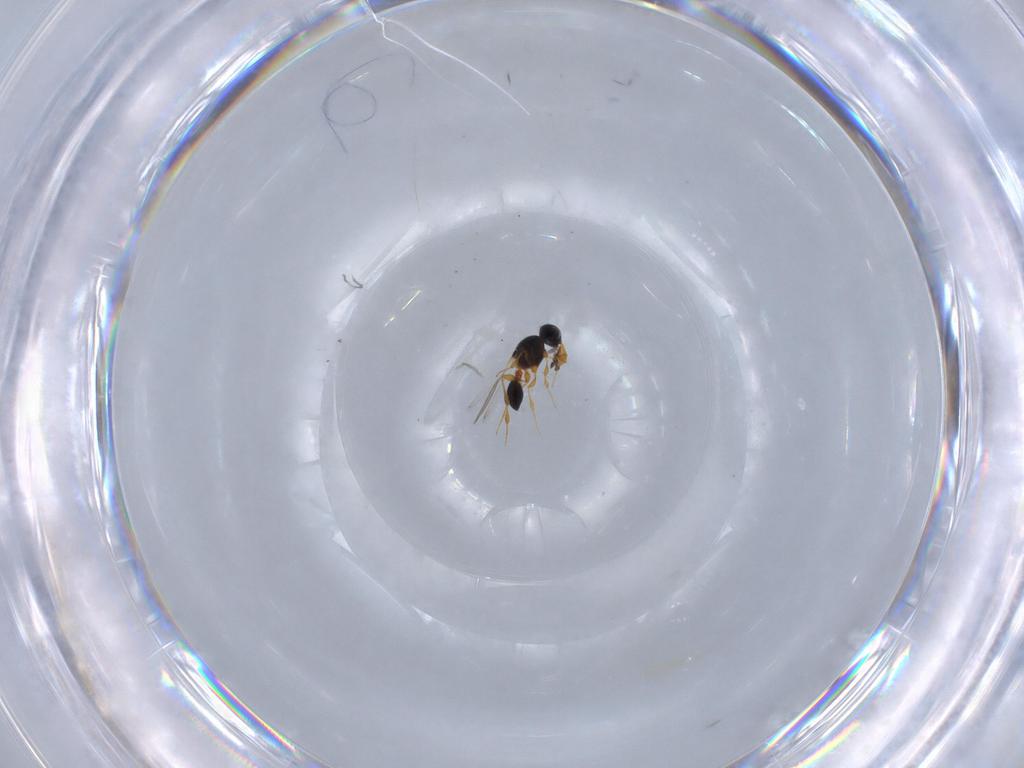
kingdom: Animalia
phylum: Arthropoda
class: Insecta
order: Hymenoptera
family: Platygastridae
